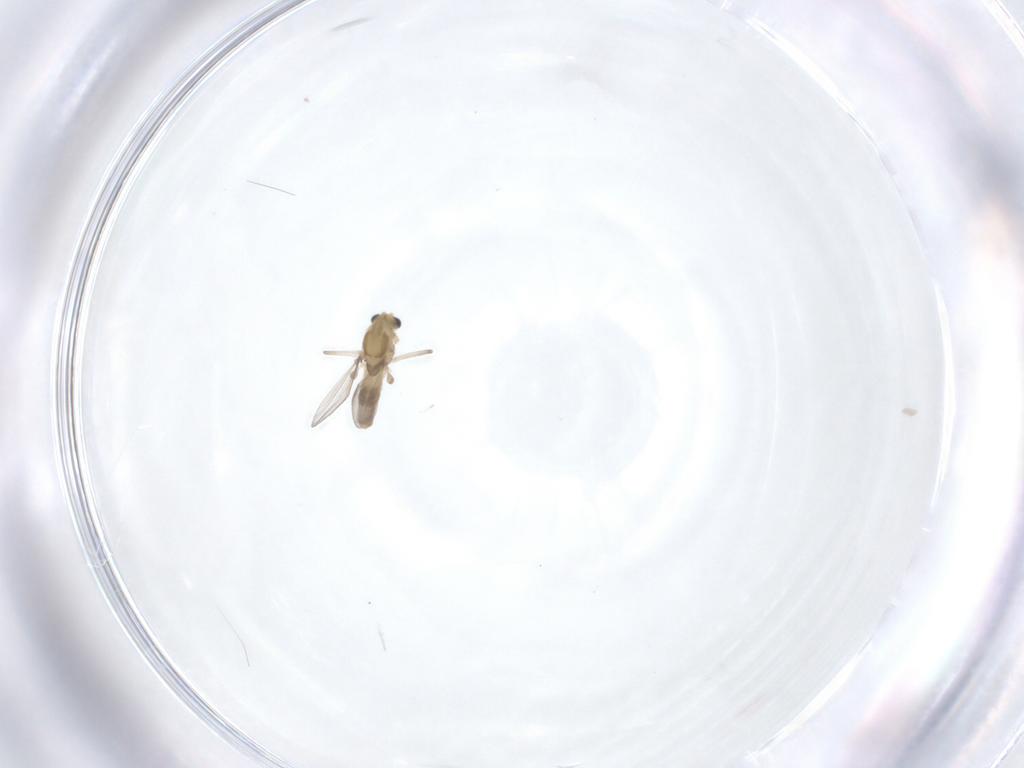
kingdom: Animalia
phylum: Arthropoda
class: Insecta
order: Diptera
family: Chironomidae
